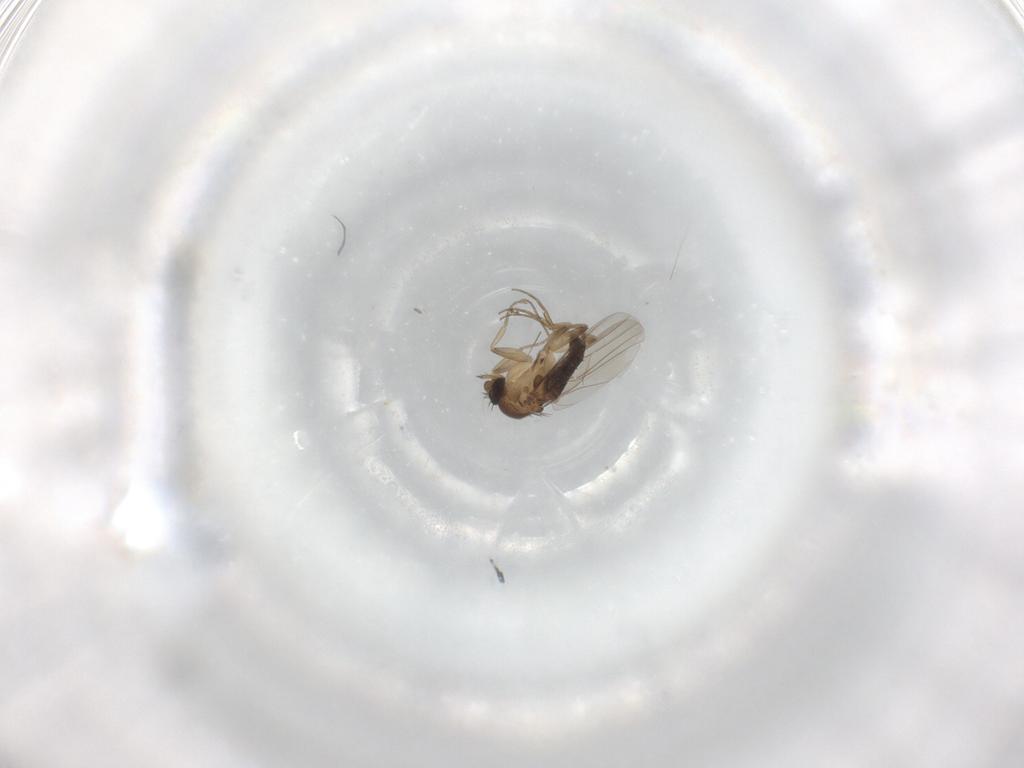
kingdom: Animalia
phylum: Arthropoda
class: Insecta
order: Diptera
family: Phoridae
